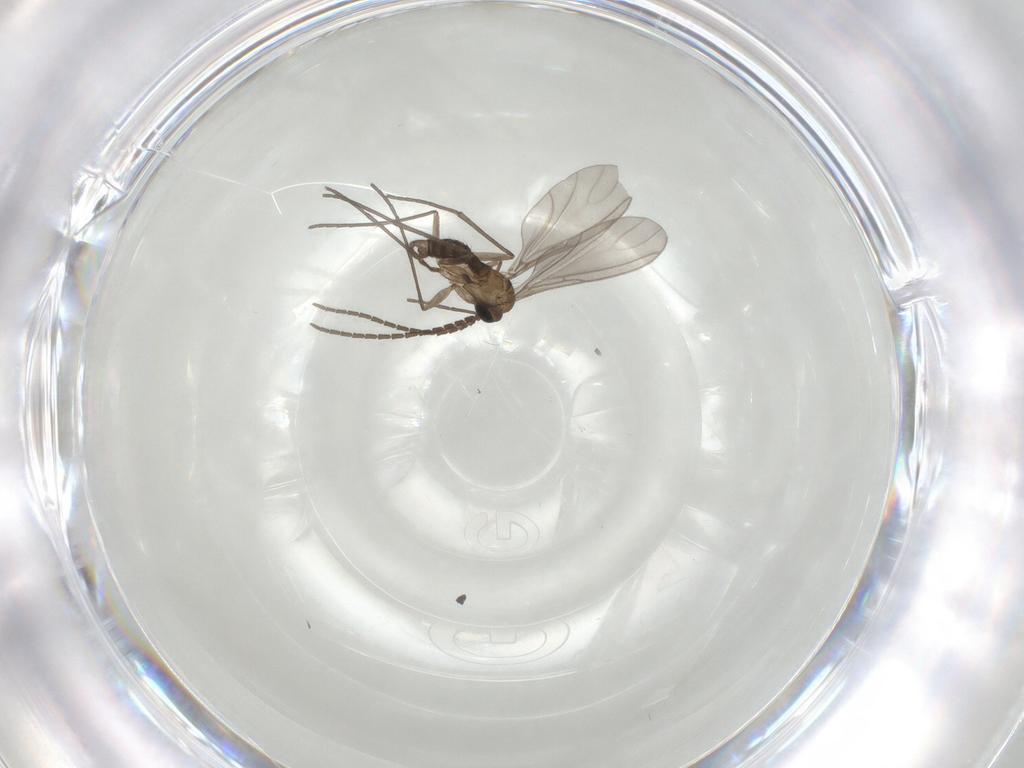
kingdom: Animalia
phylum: Arthropoda
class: Insecta
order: Diptera
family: Sciaridae
